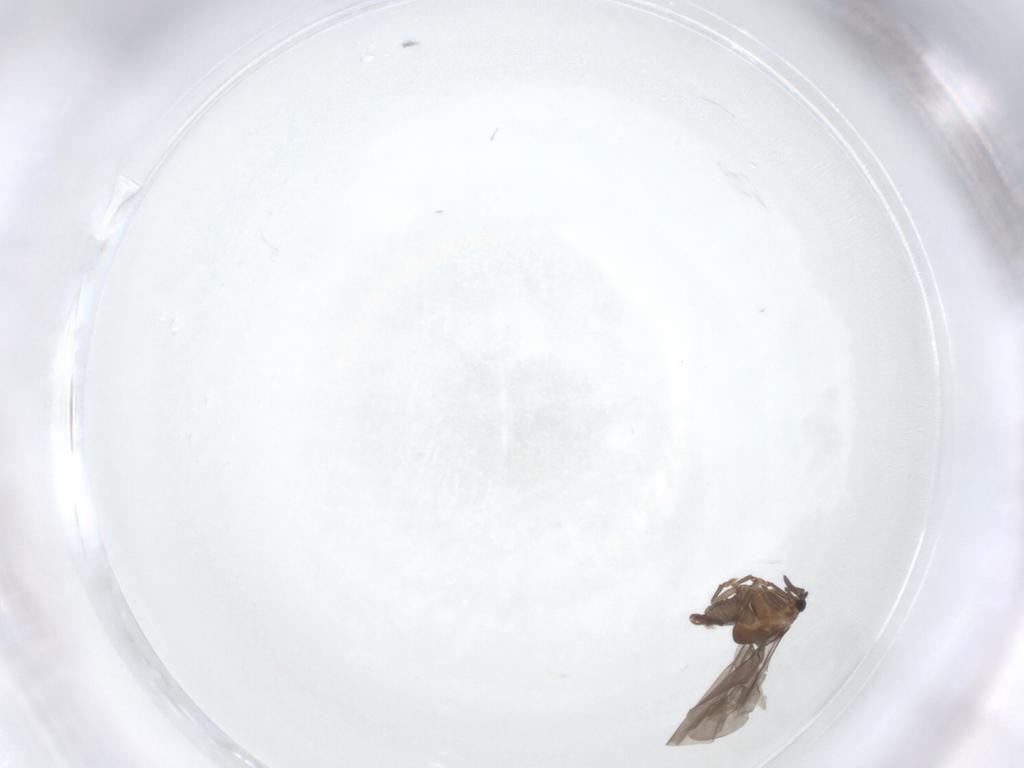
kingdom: Animalia
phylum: Arthropoda
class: Insecta
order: Strepsiptera
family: Myrmecolacidae
